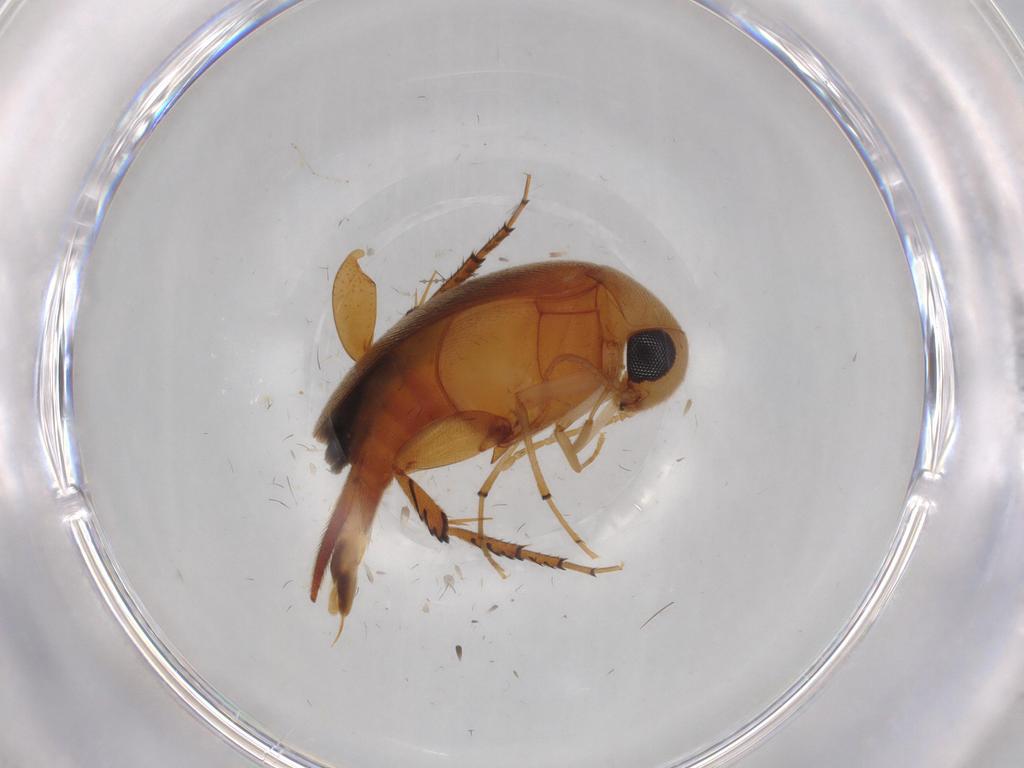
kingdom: Animalia
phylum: Arthropoda
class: Insecta
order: Coleoptera
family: Mordellidae
